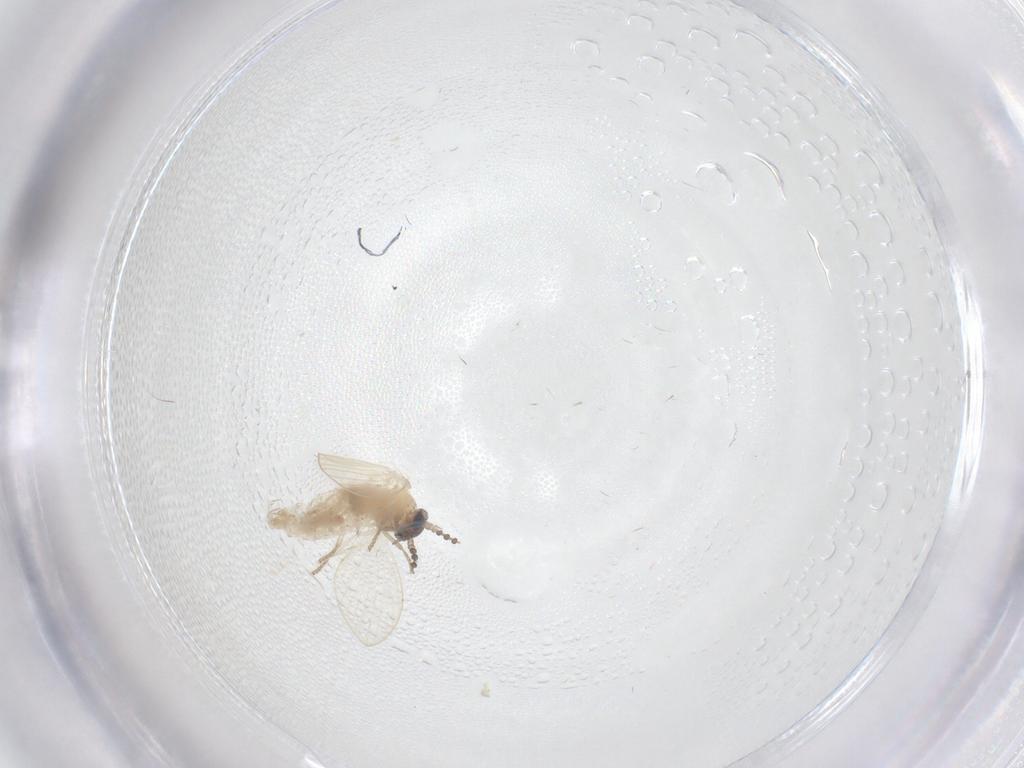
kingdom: Animalia
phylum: Arthropoda
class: Insecta
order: Diptera
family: Psychodidae
